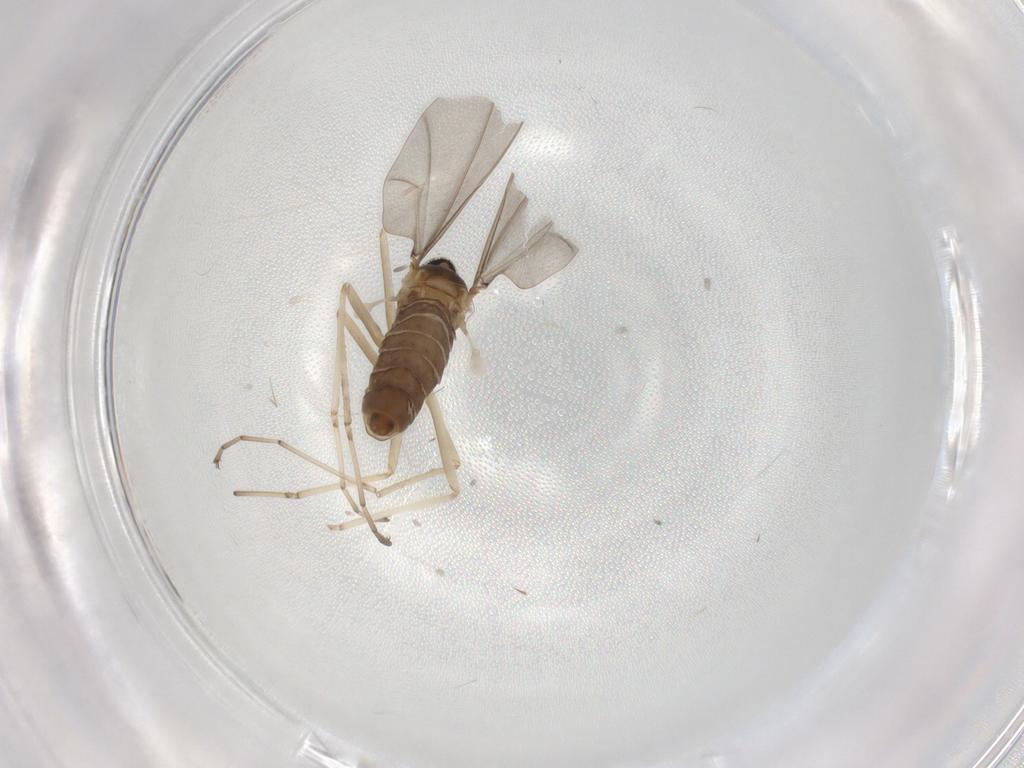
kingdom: Animalia
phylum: Arthropoda
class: Insecta
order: Diptera
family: Cecidomyiidae
